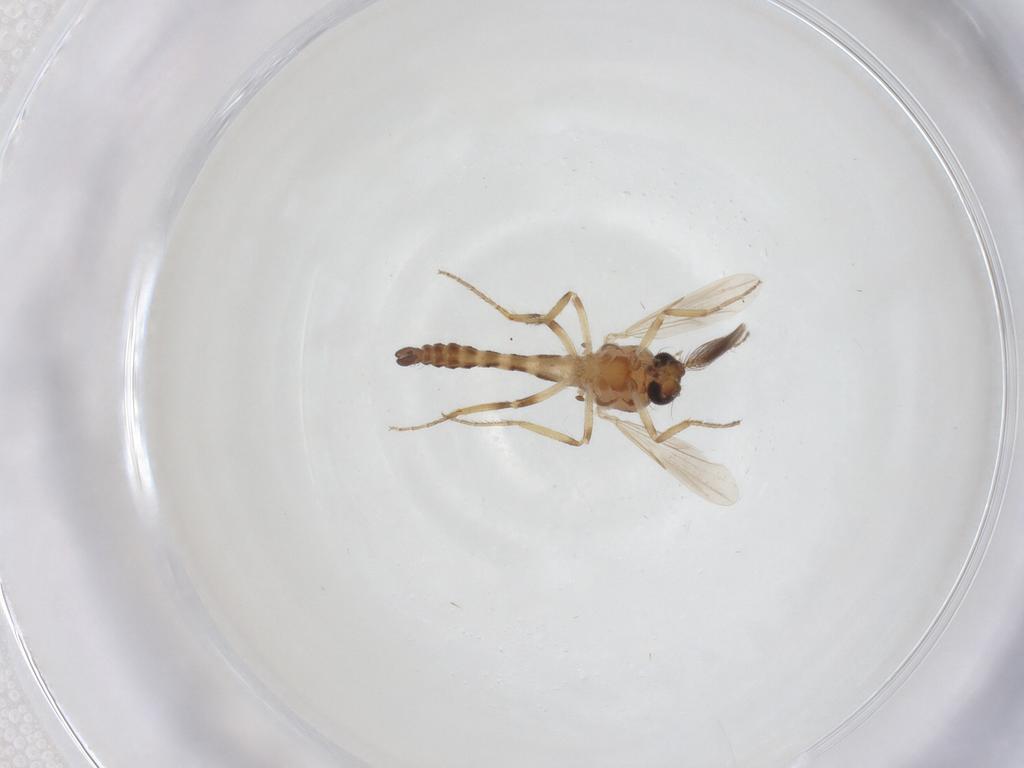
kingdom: Animalia
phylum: Arthropoda
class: Insecta
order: Diptera
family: Ceratopogonidae
